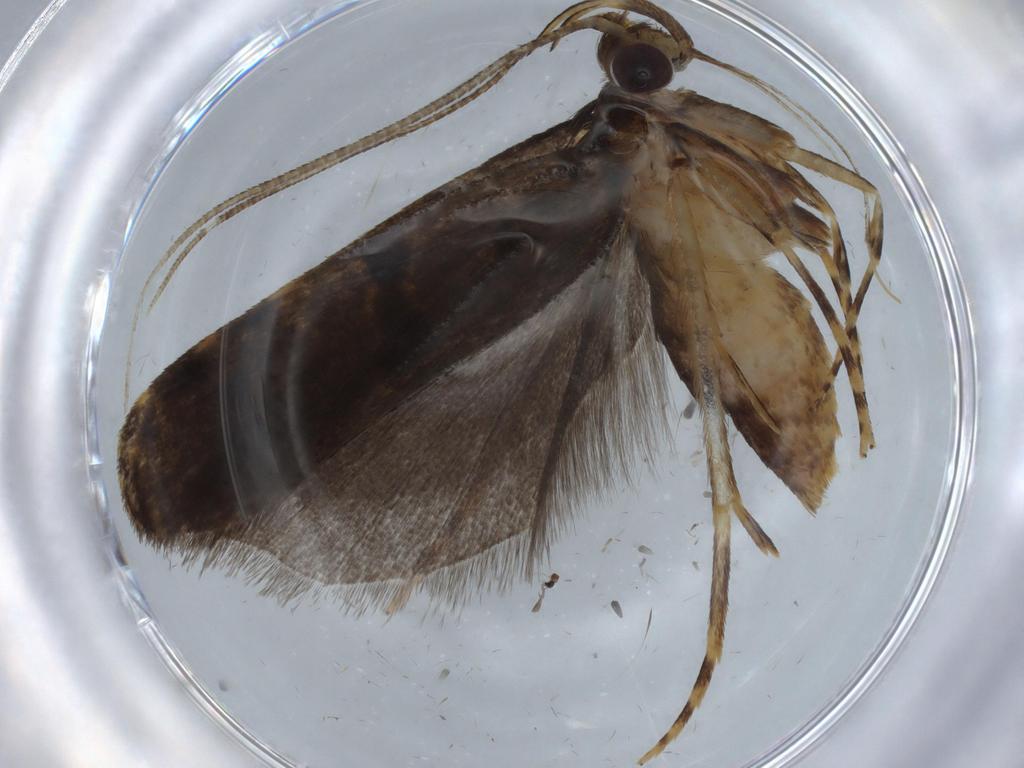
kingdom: Animalia
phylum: Arthropoda
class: Insecta
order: Lepidoptera
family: Autostichidae
